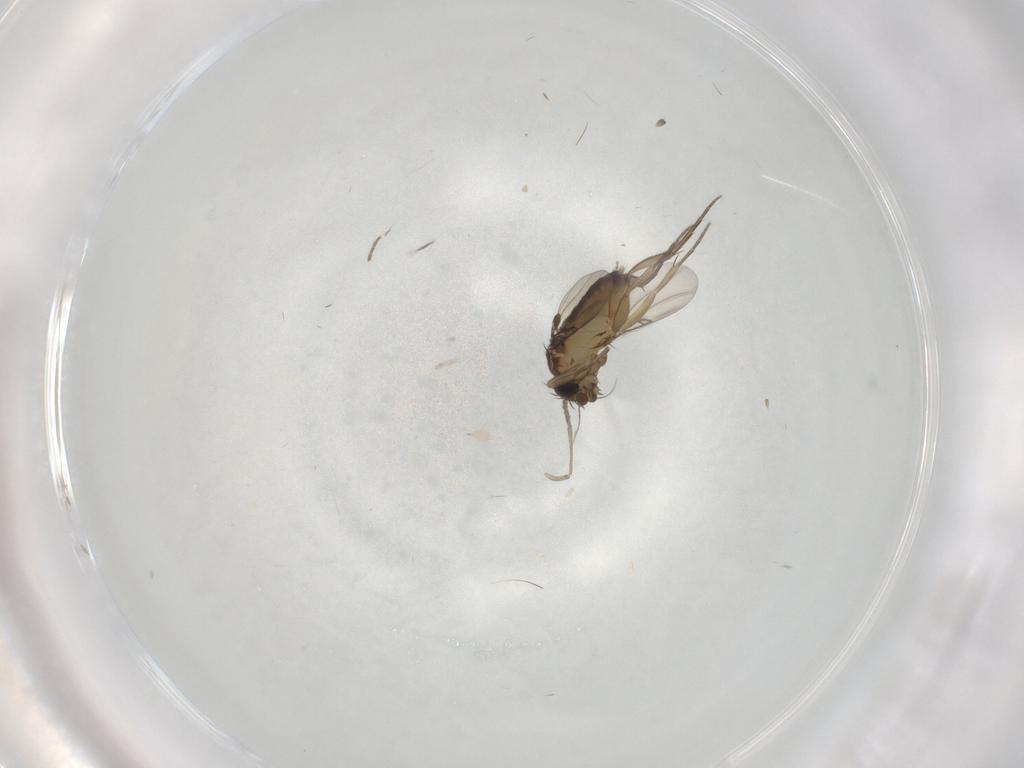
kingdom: Animalia
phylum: Arthropoda
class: Insecta
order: Diptera
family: Phoridae
